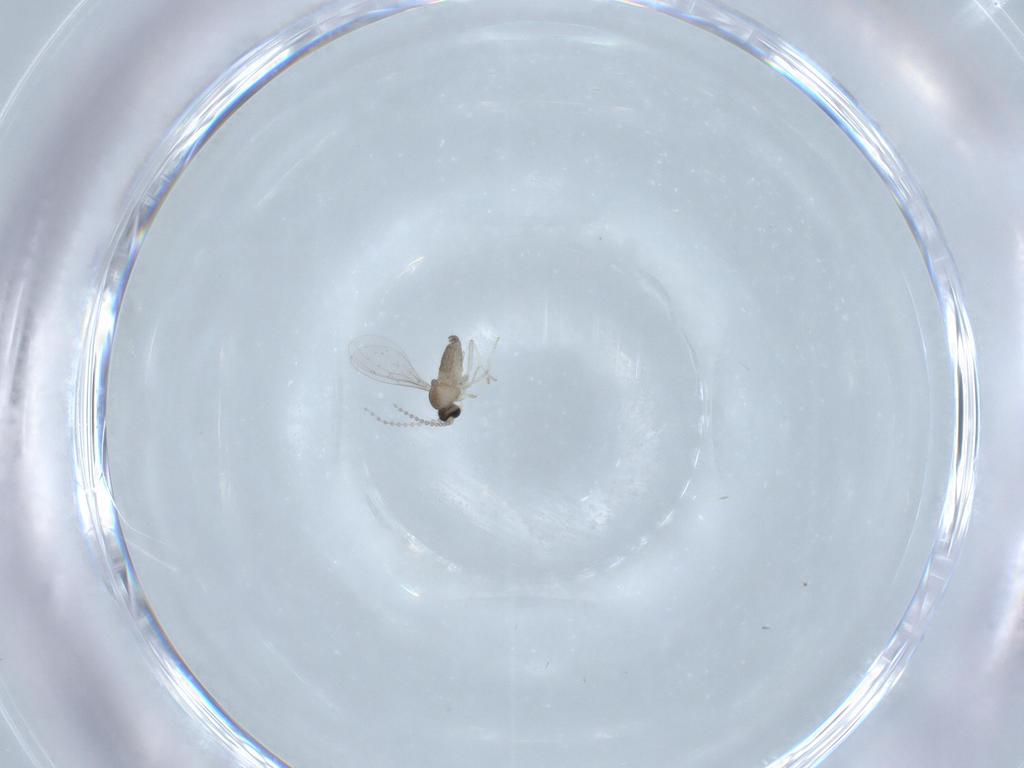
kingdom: Animalia
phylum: Arthropoda
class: Insecta
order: Diptera
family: Cecidomyiidae
